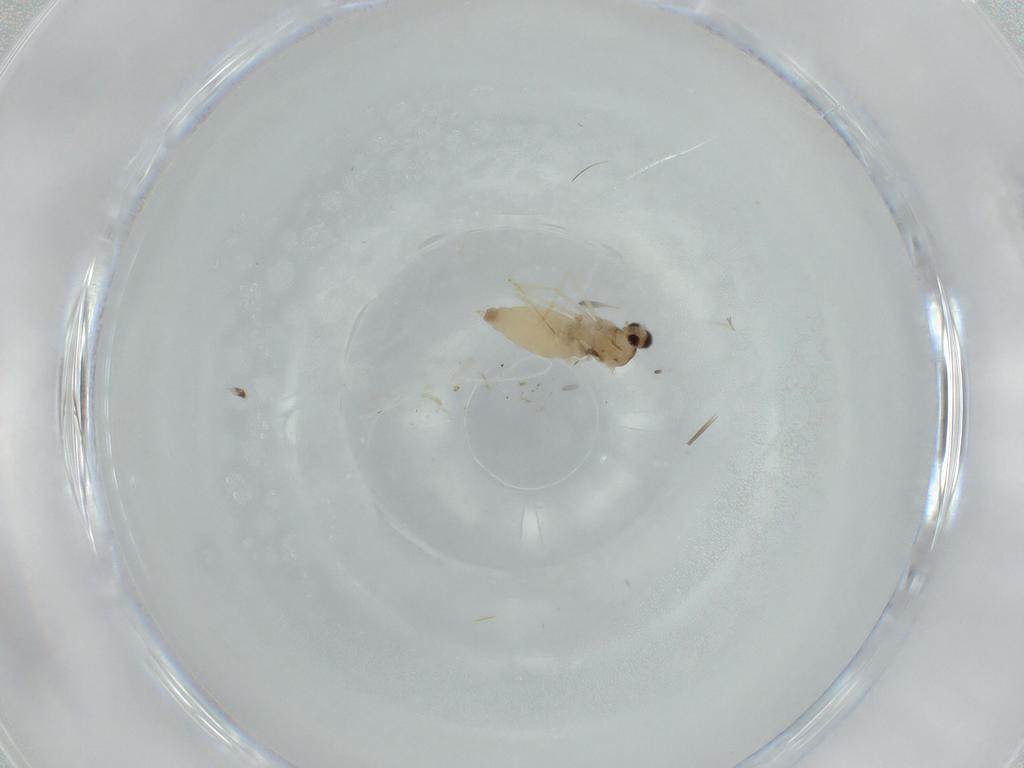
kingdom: Animalia
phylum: Arthropoda
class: Insecta
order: Diptera
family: Cecidomyiidae
